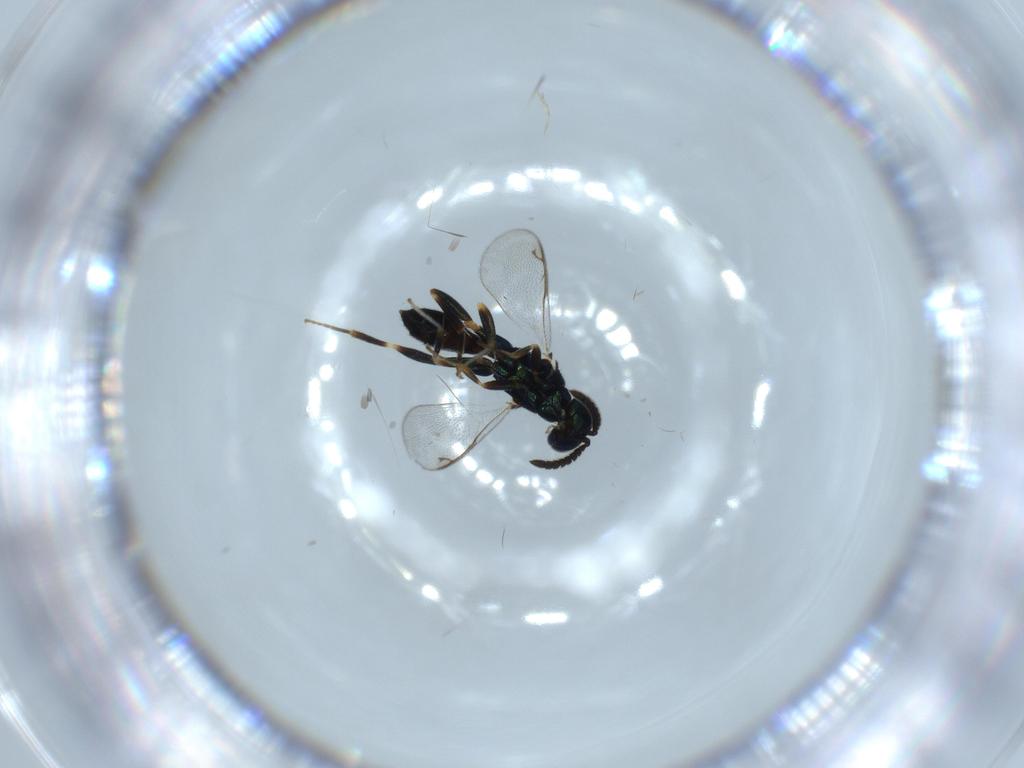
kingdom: Animalia
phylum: Arthropoda
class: Insecta
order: Hymenoptera
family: Cleonyminae
